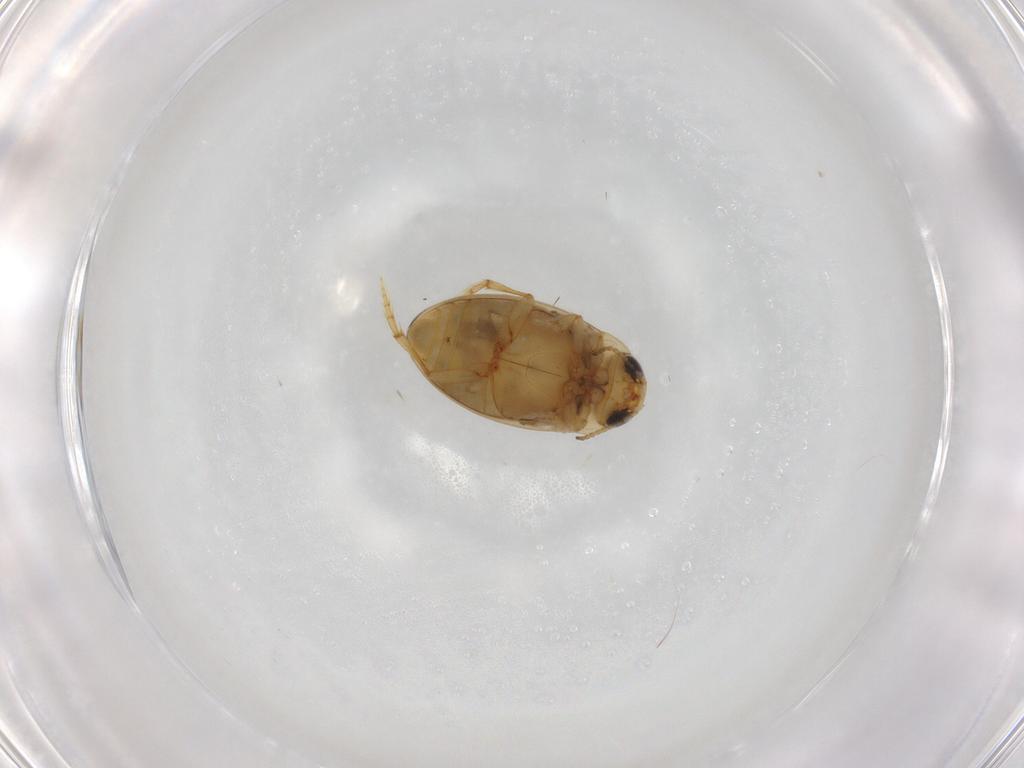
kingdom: Animalia
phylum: Arthropoda
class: Insecta
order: Coleoptera
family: Dytiscidae
